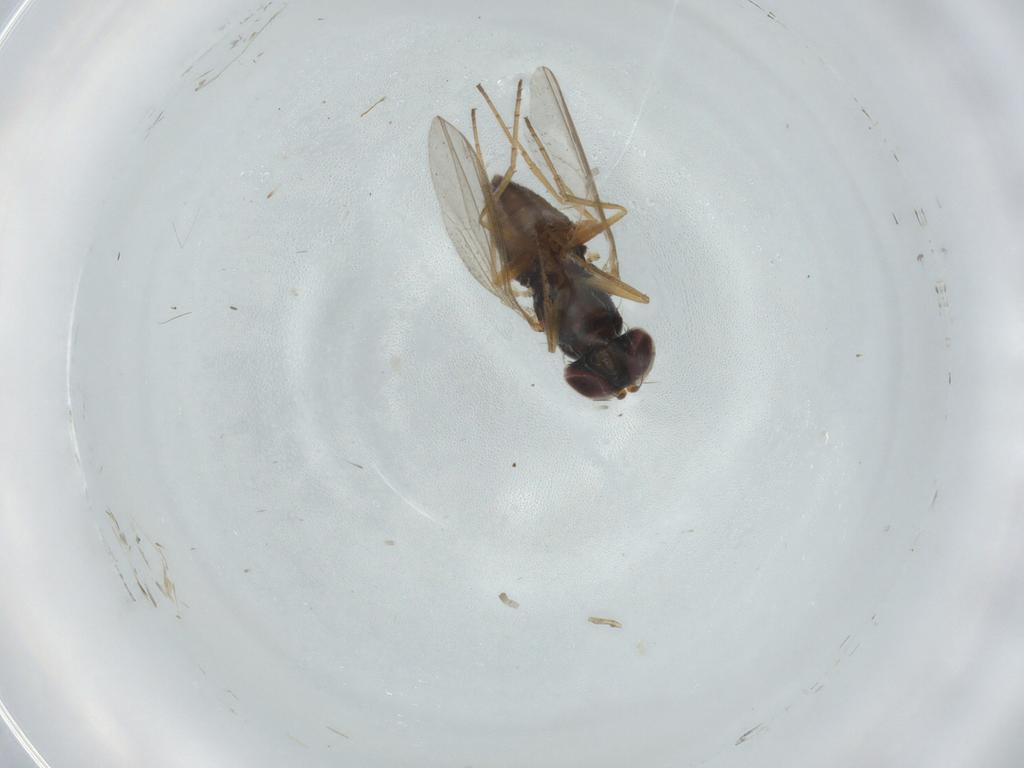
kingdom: Animalia
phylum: Arthropoda
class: Insecta
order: Diptera
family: Dolichopodidae
